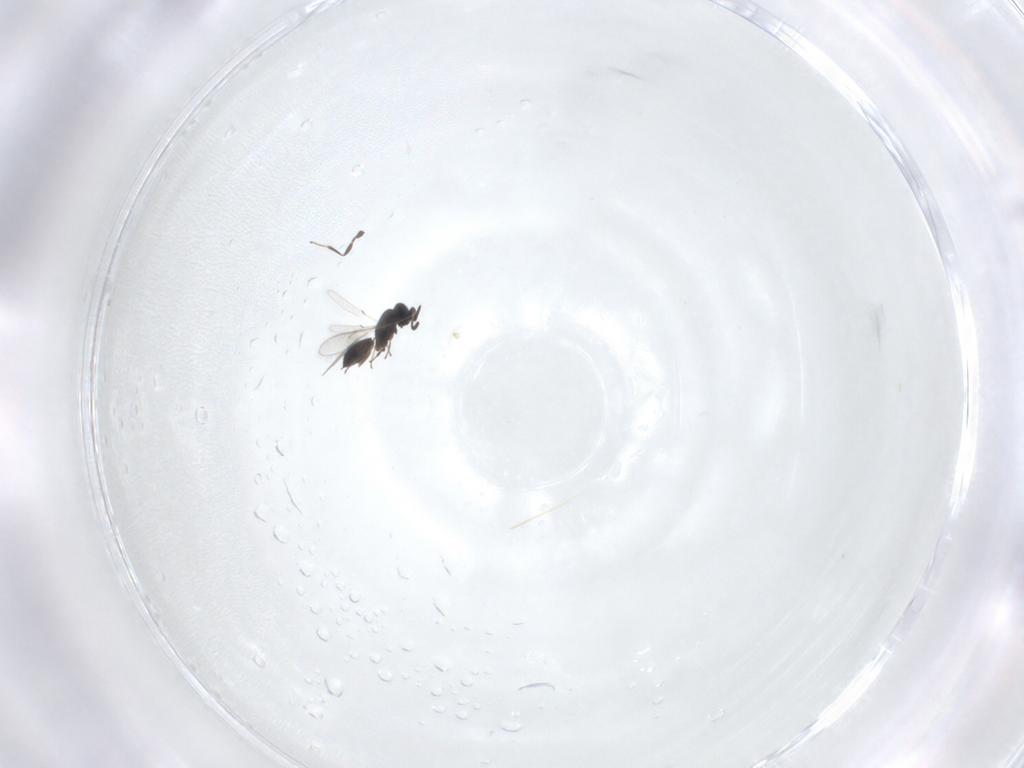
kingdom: Animalia
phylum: Arthropoda
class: Insecta
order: Hymenoptera
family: Scelionidae
